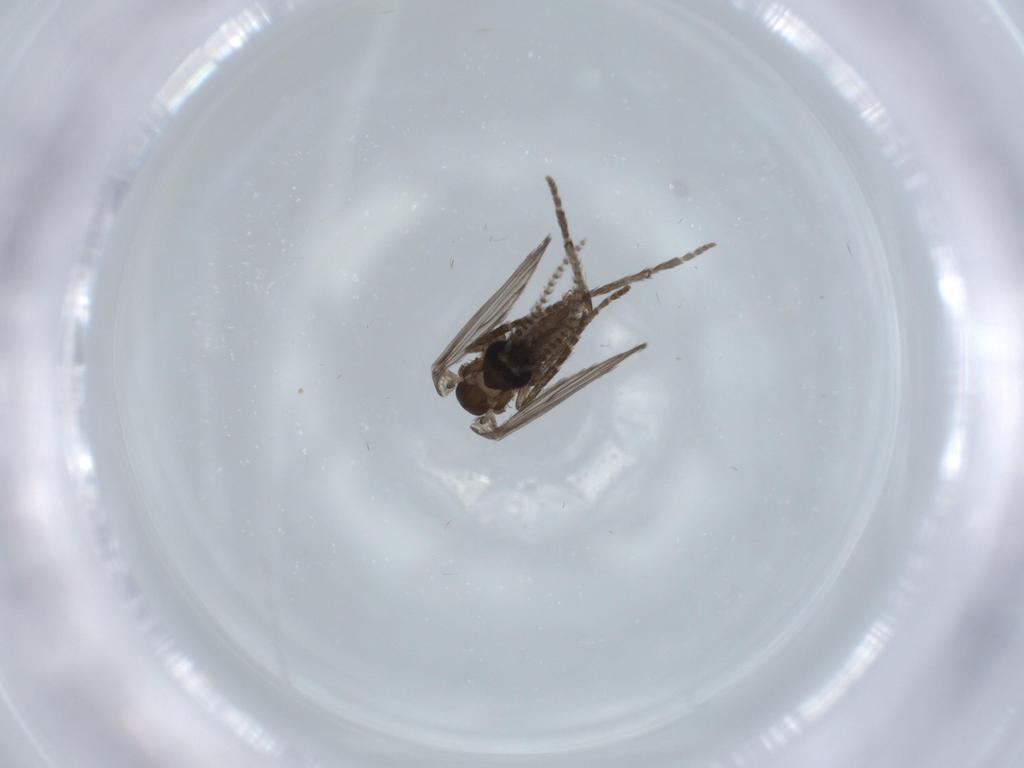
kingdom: Animalia
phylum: Arthropoda
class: Insecta
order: Diptera
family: Psychodidae
